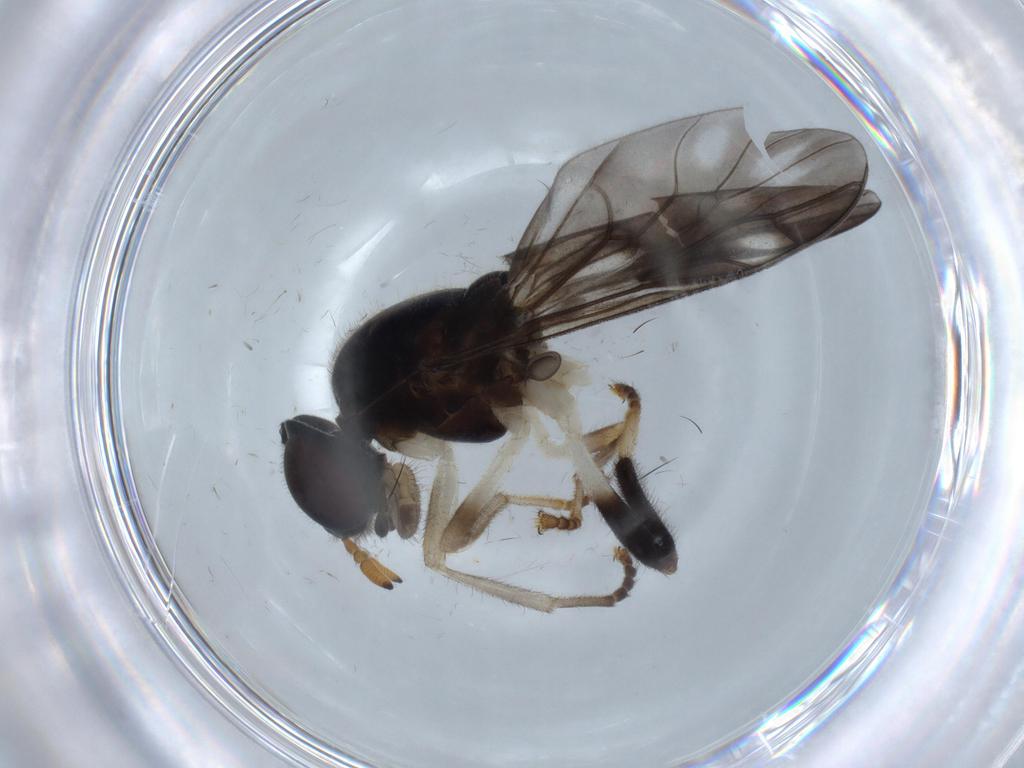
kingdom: Animalia
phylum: Arthropoda
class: Insecta
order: Diptera
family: Stratiomyidae
